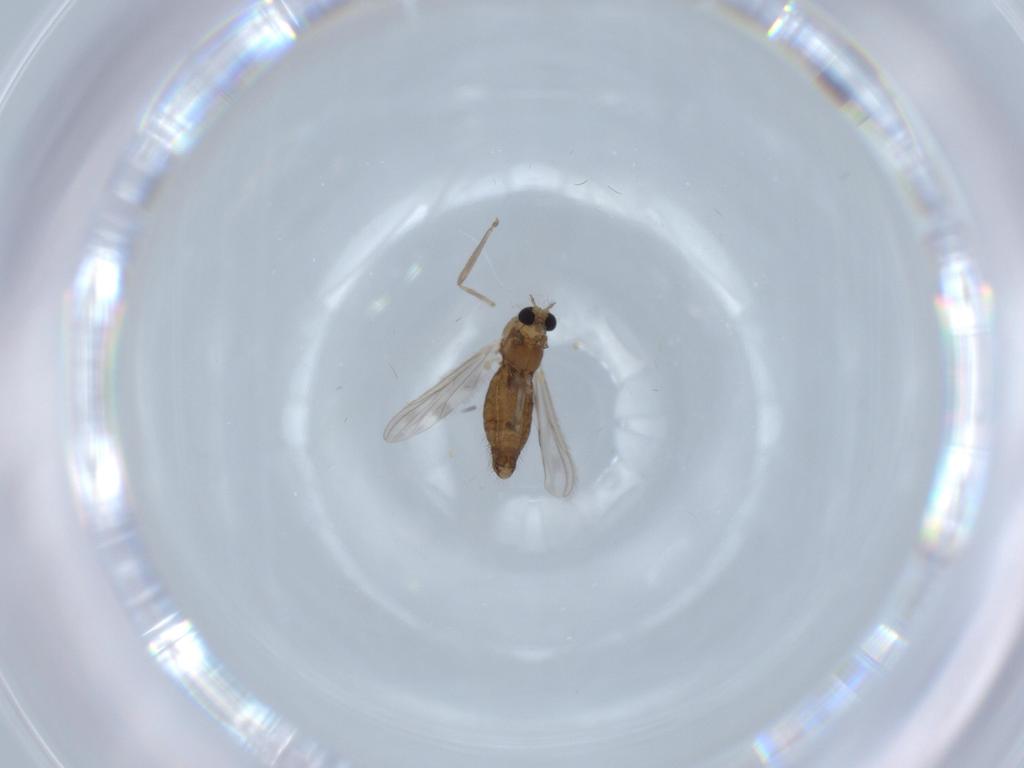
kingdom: Animalia
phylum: Arthropoda
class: Insecta
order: Diptera
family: Chironomidae
